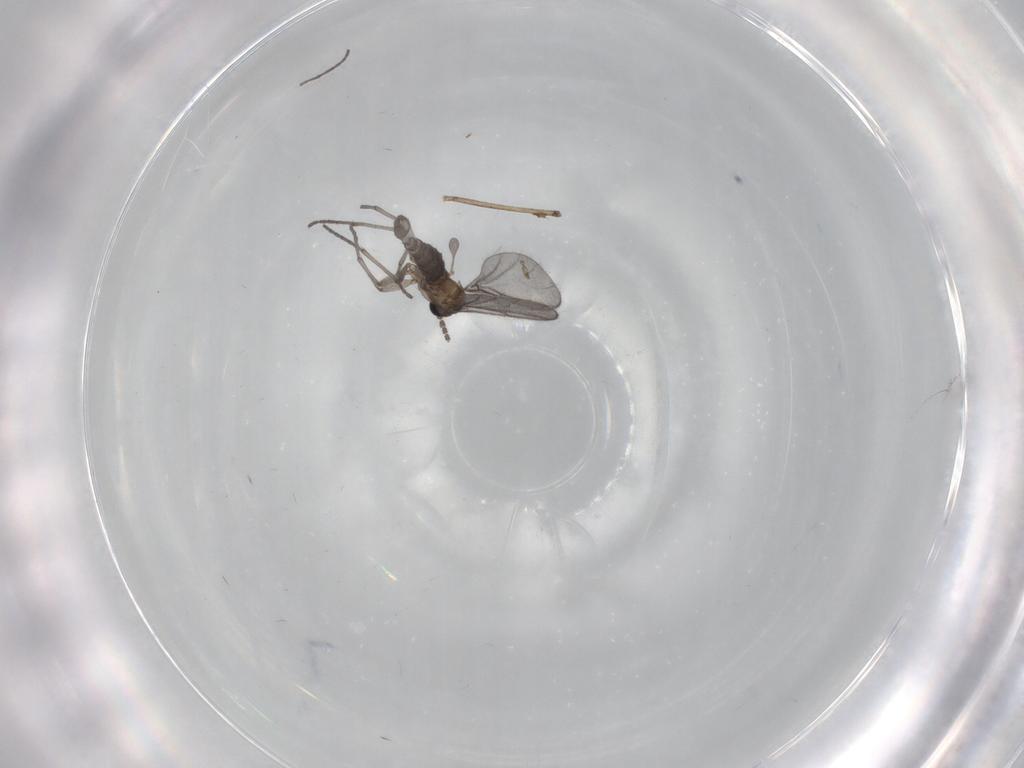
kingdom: Animalia
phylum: Arthropoda
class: Insecta
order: Diptera
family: Sciaridae
